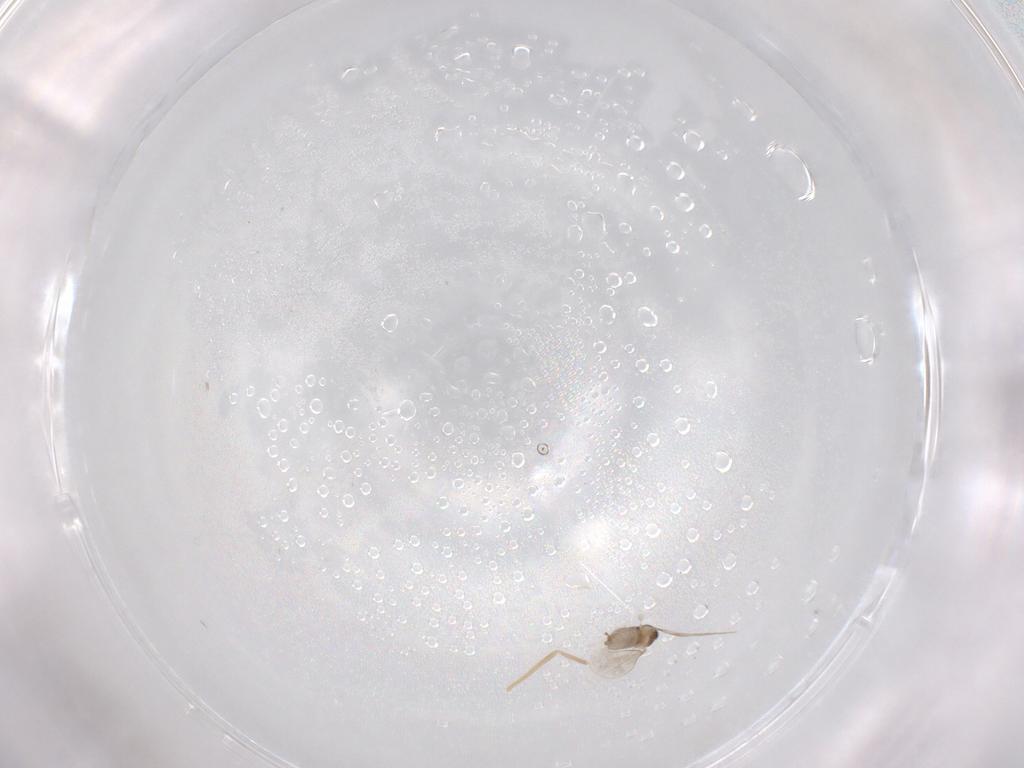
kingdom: Animalia
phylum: Arthropoda
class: Insecta
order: Diptera
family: Cecidomyiidae
